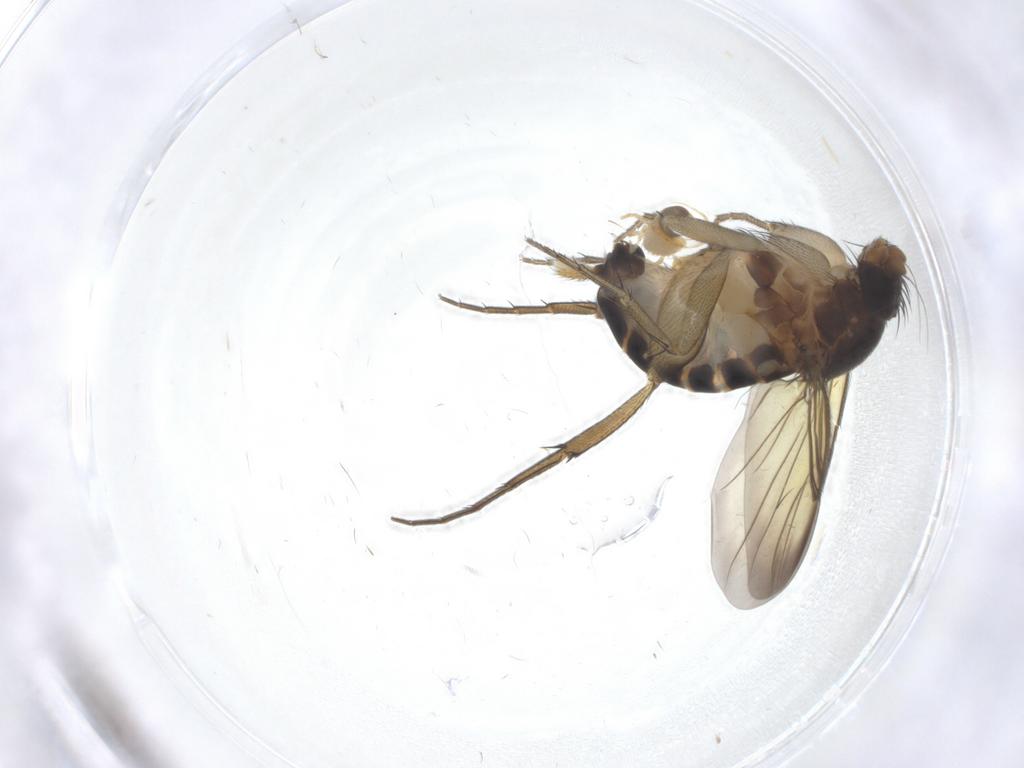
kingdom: Animalia
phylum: Arthropoda
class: Insecta
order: Diptera
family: Phoridae
